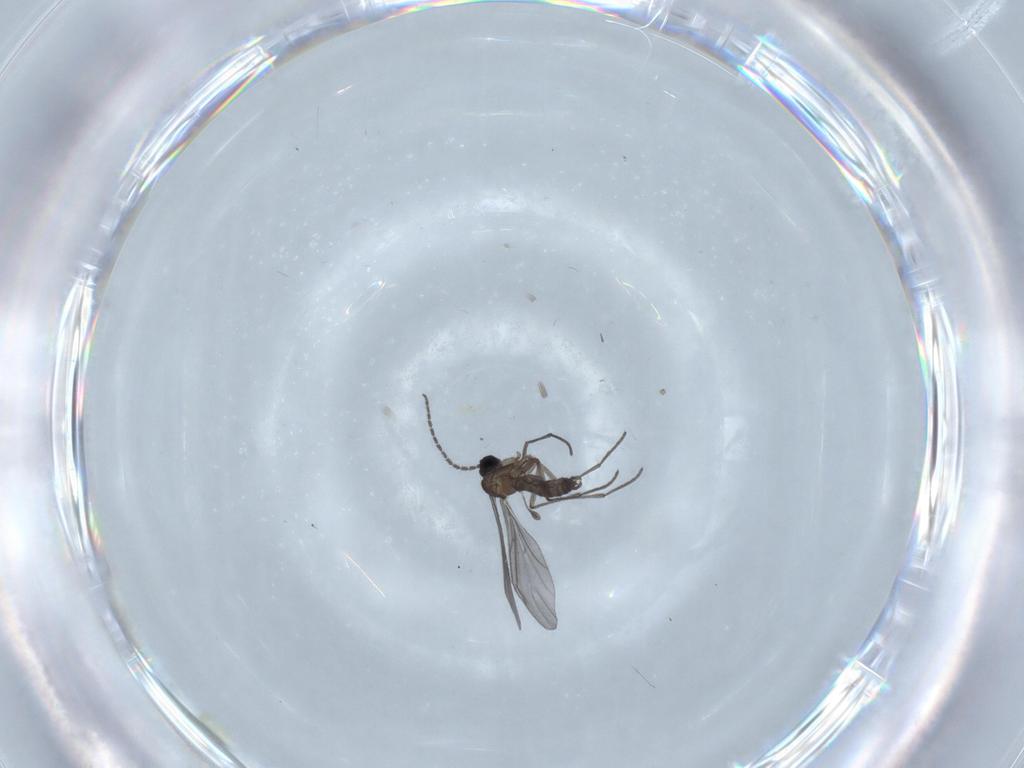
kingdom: Animalia
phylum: Arthropoda
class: Insecta
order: Diptera
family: Sciaridae
